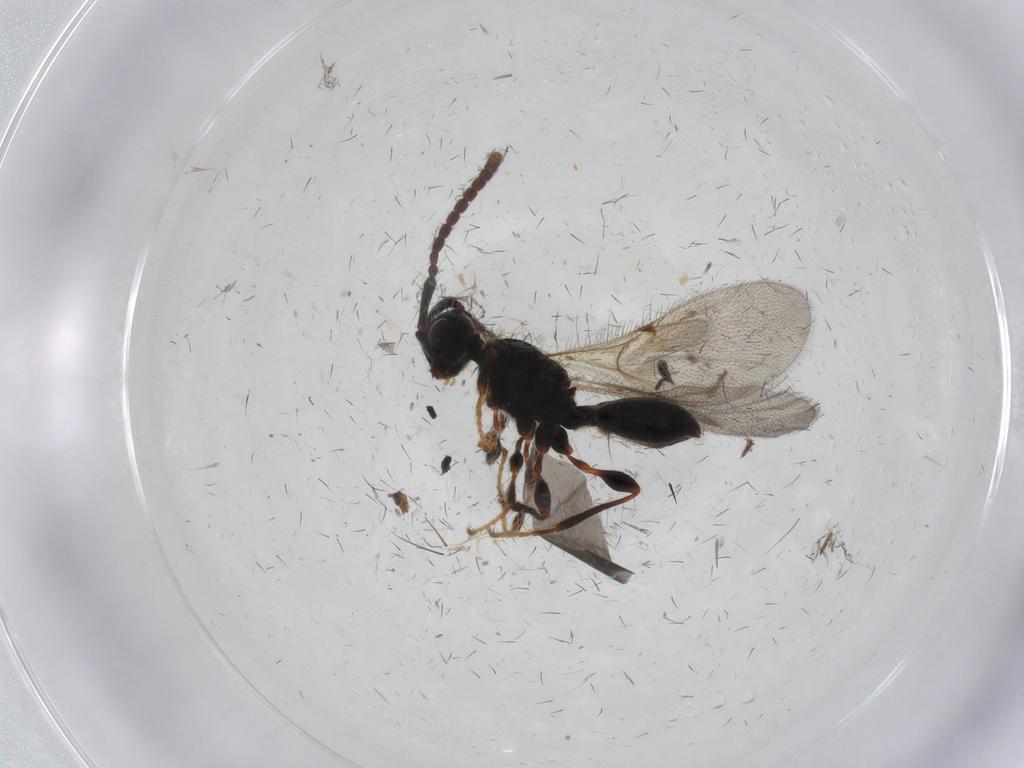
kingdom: Animalia
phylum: Arthropoda
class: Insecta
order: Hymenoptera
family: Diapriidae
